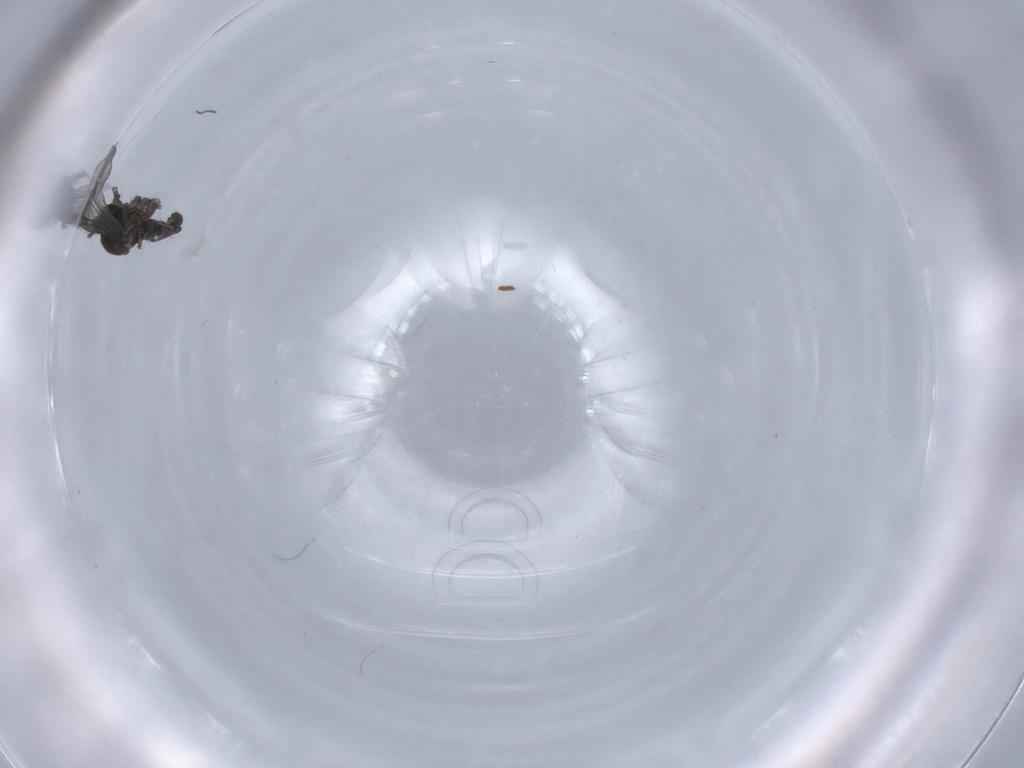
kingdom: Animalia
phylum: Arthropoda
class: Insecta
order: Diptera
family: Sciaridae
